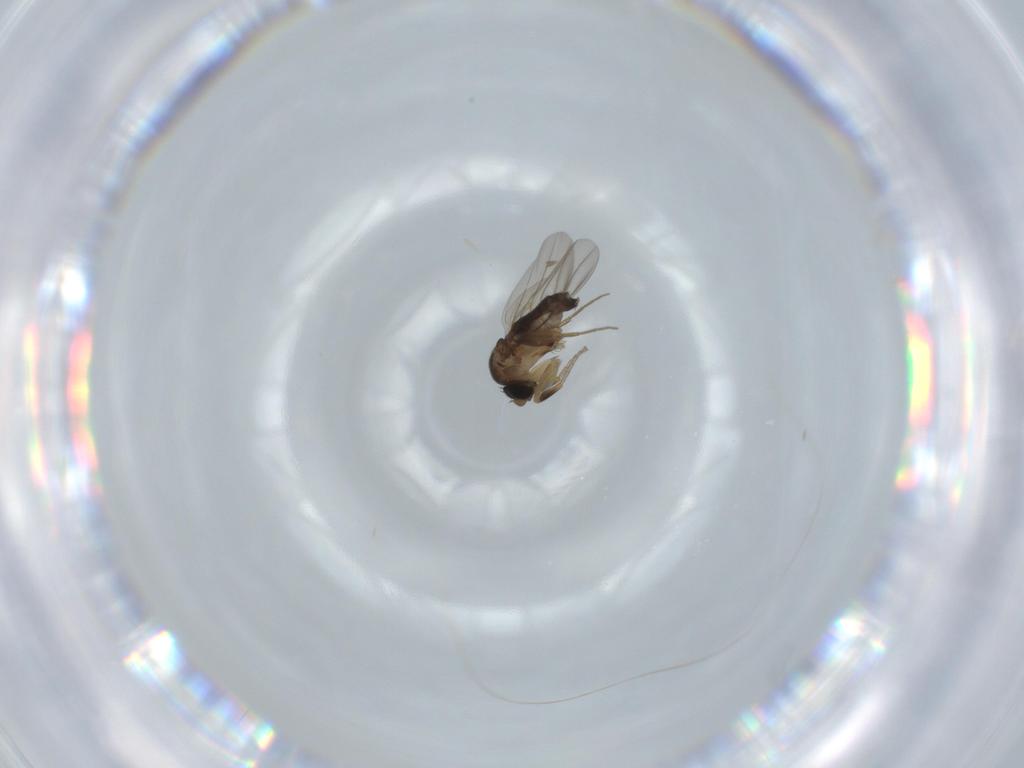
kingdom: Animalia
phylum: Arthropoda
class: Insecta
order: Diptera
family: Phoridae
